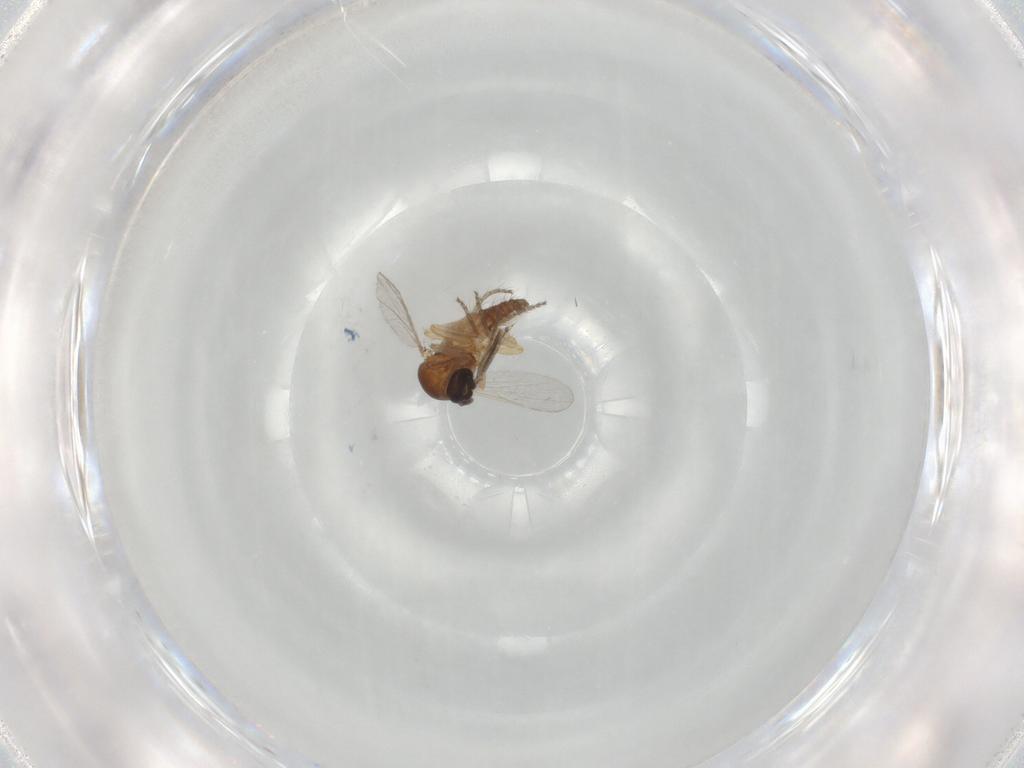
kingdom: Animalia
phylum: Arthropoda
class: Insecta
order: Diptera
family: Ceratopogonidae
